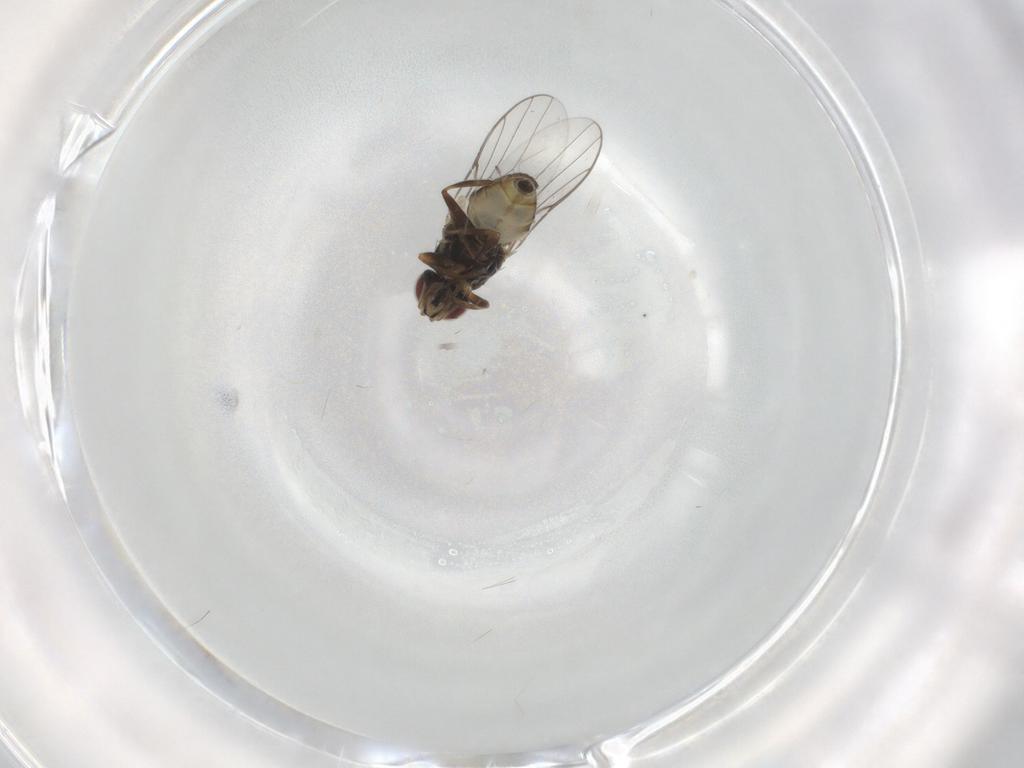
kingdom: Animalia
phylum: Arthropoda
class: Insecta
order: Diptera
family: Chloropidae
